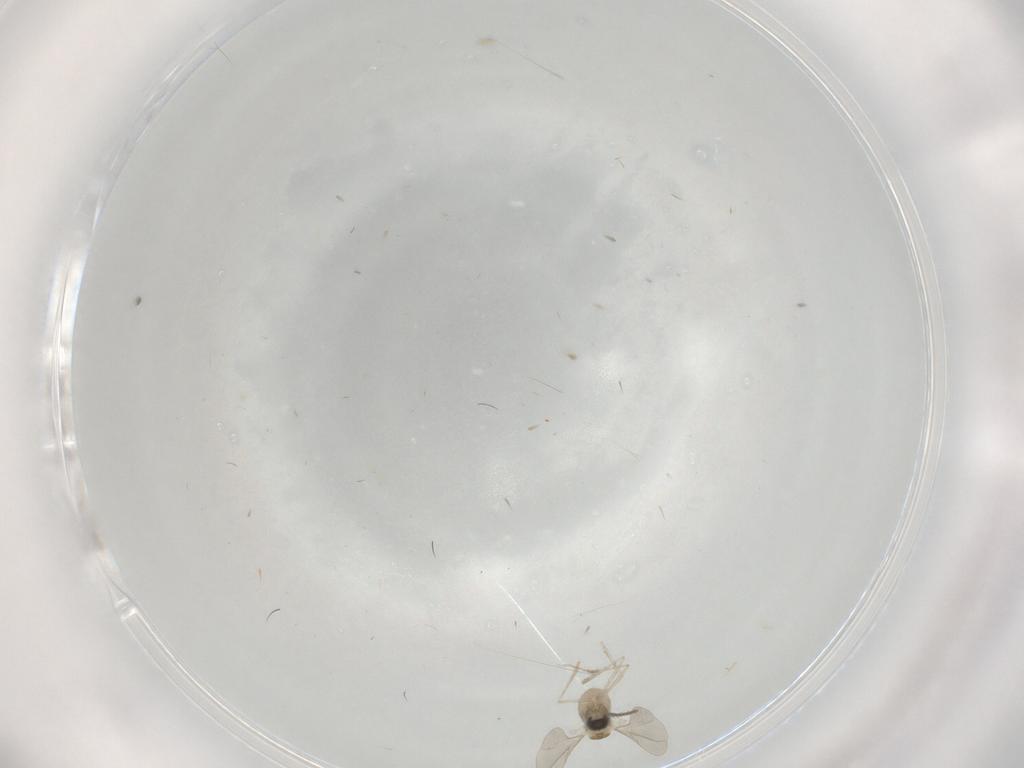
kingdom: Animalia
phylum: Arthropoda
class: Insecta
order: Diptera
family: Cecidomyiidae
